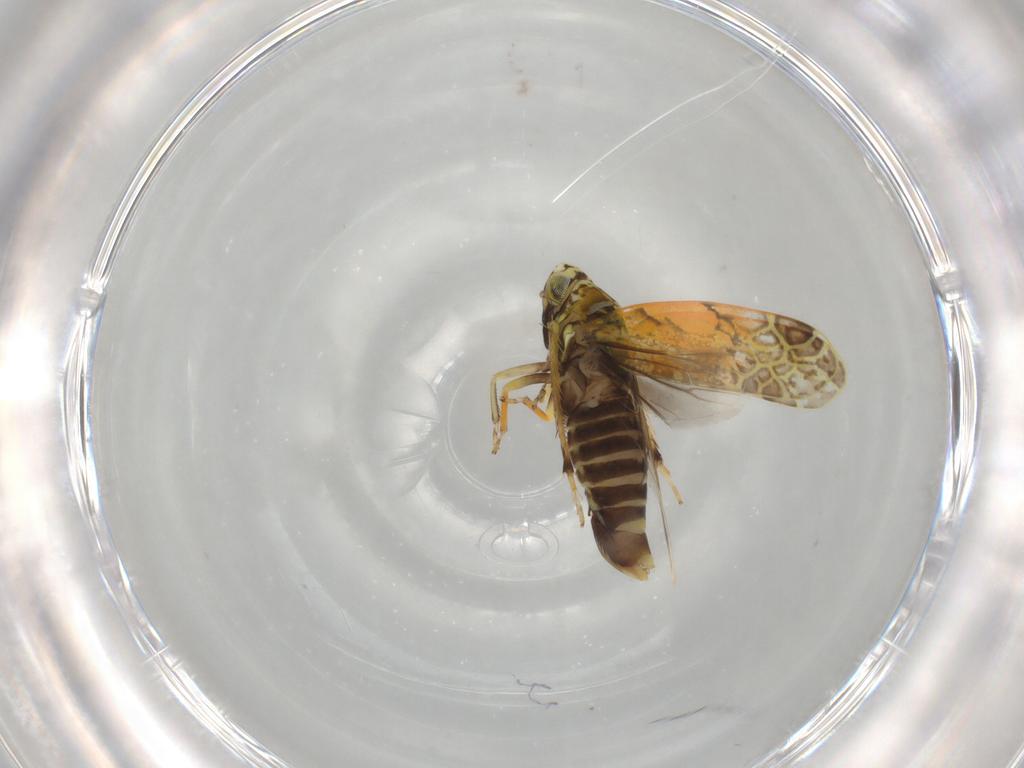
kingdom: Animalia
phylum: Arthropoda
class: Insecta
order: Hemiptera
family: Cicadellidae
